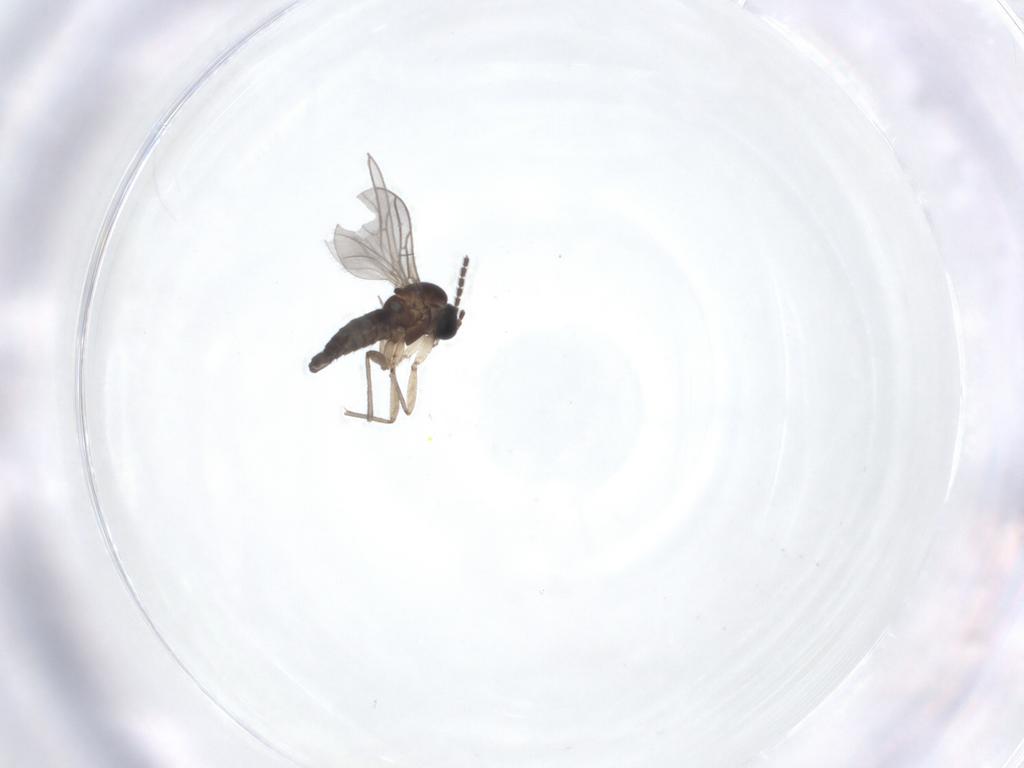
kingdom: Animalia
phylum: Arthropoda
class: Insecta
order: Diptera
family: Sciaridae
